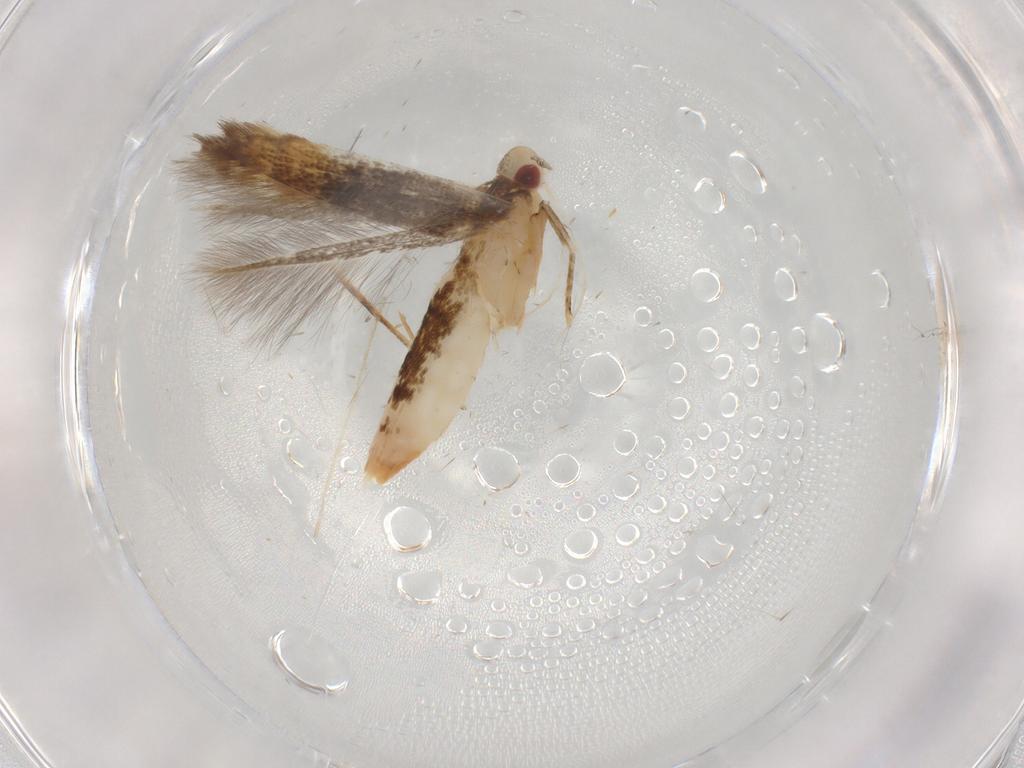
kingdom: Animalia
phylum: Arthropoda
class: Insecta
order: Lepidoptera
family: Gelechiidae
